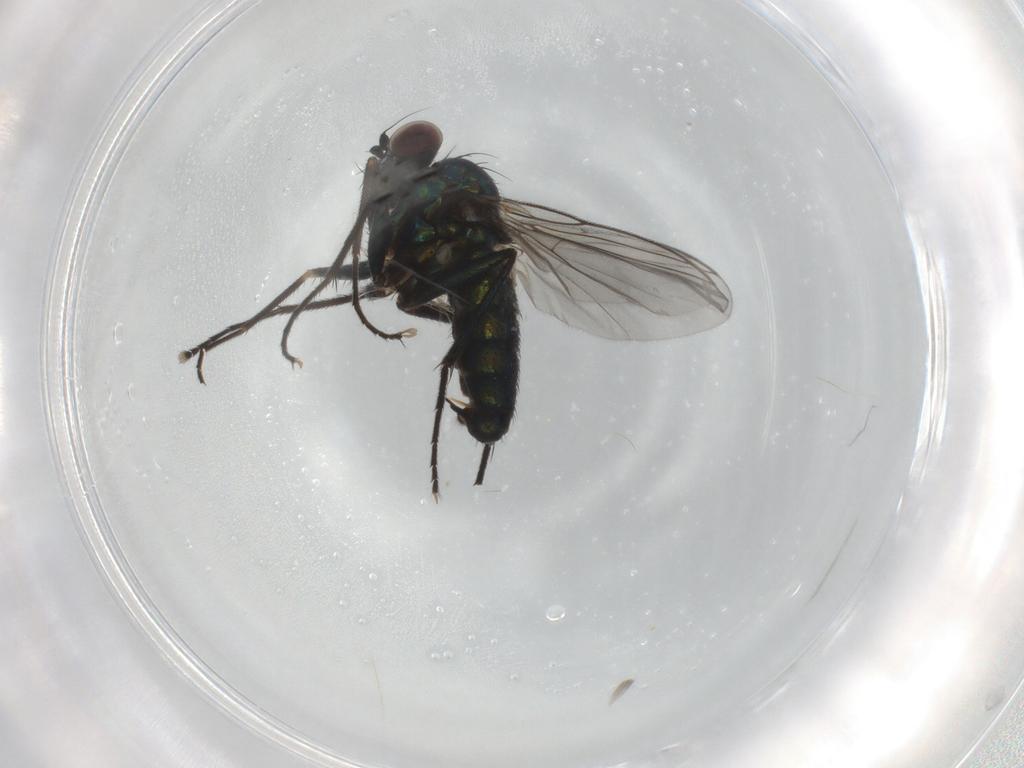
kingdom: Animalia
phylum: Arthropoda
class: Insecta
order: Diptera
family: Dolichopodidae
